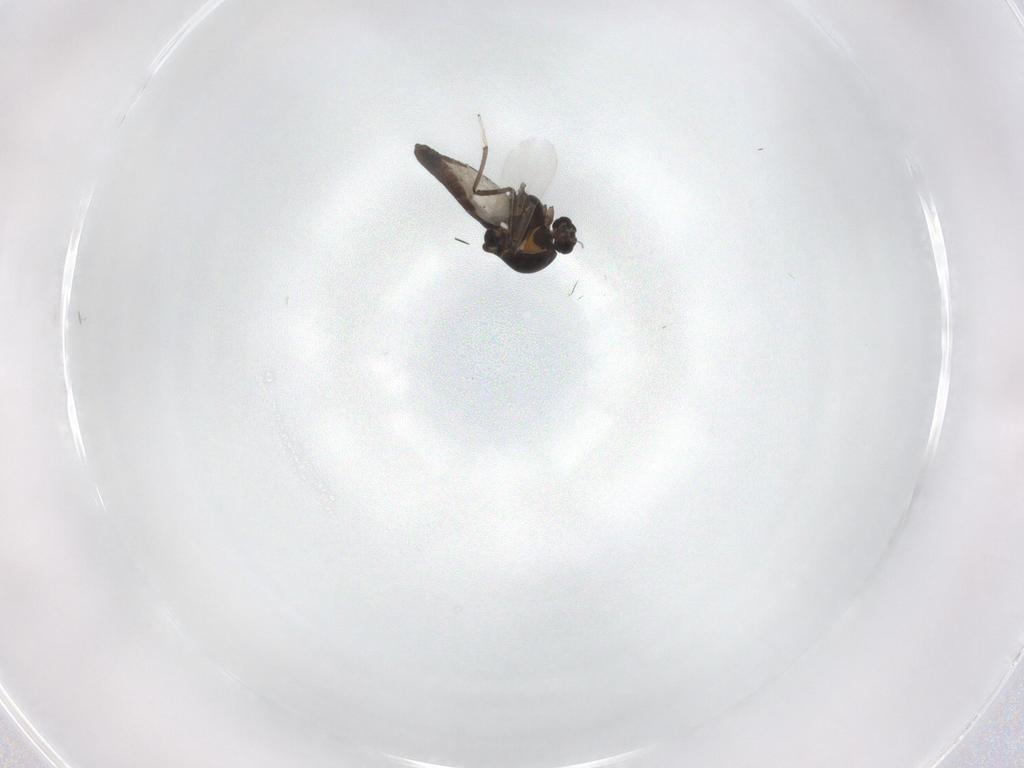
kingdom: Animalia
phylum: Arthropoda
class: Insecta
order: Diptera
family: Ceratopogonidae
